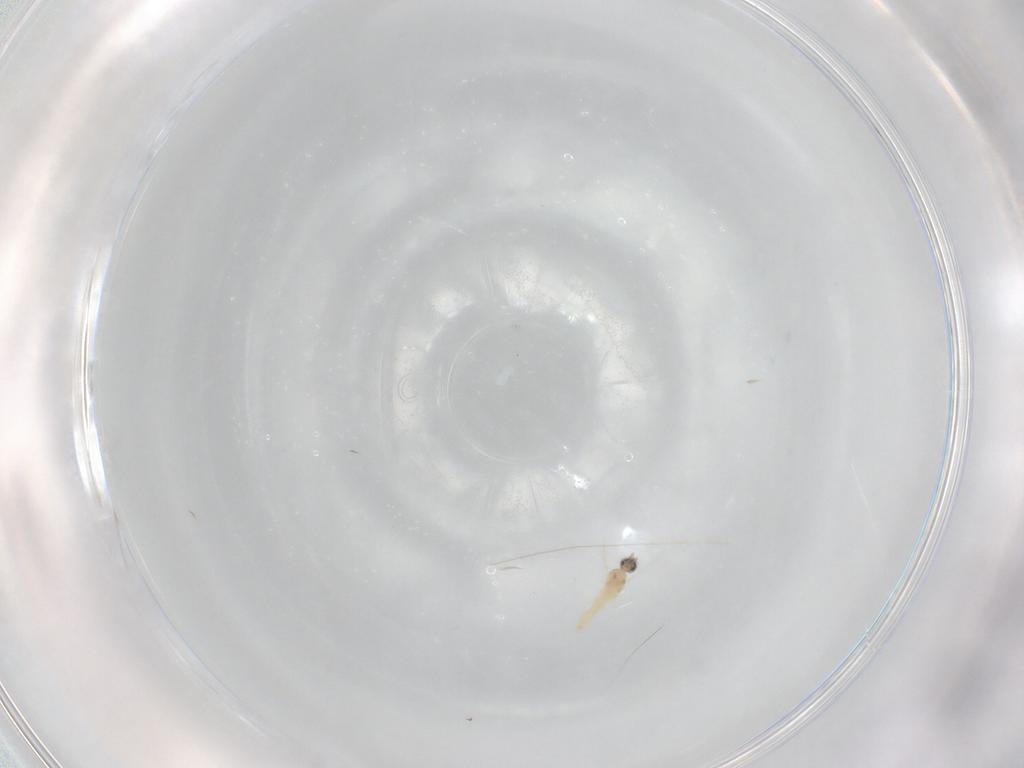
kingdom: Animalia
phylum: Arthropoda
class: Insecta
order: Diptera
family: Cecidomyiidae
